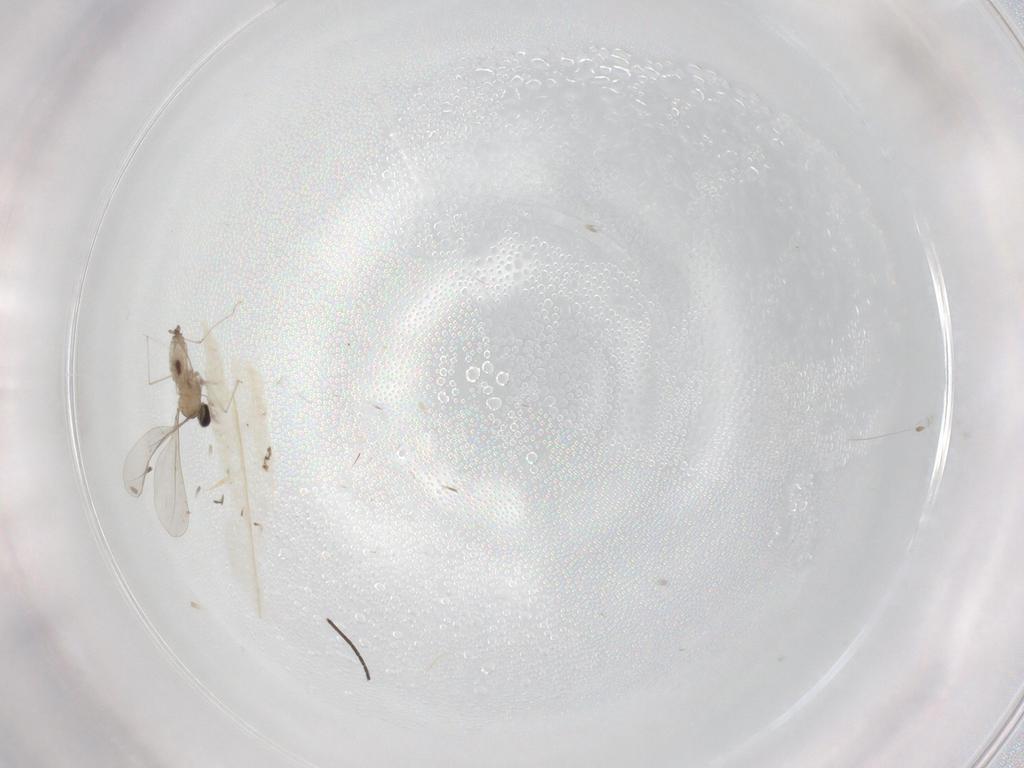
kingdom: Animalia
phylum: Arthropoda
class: Insecta
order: Diptera
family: Cecidomyiidae
